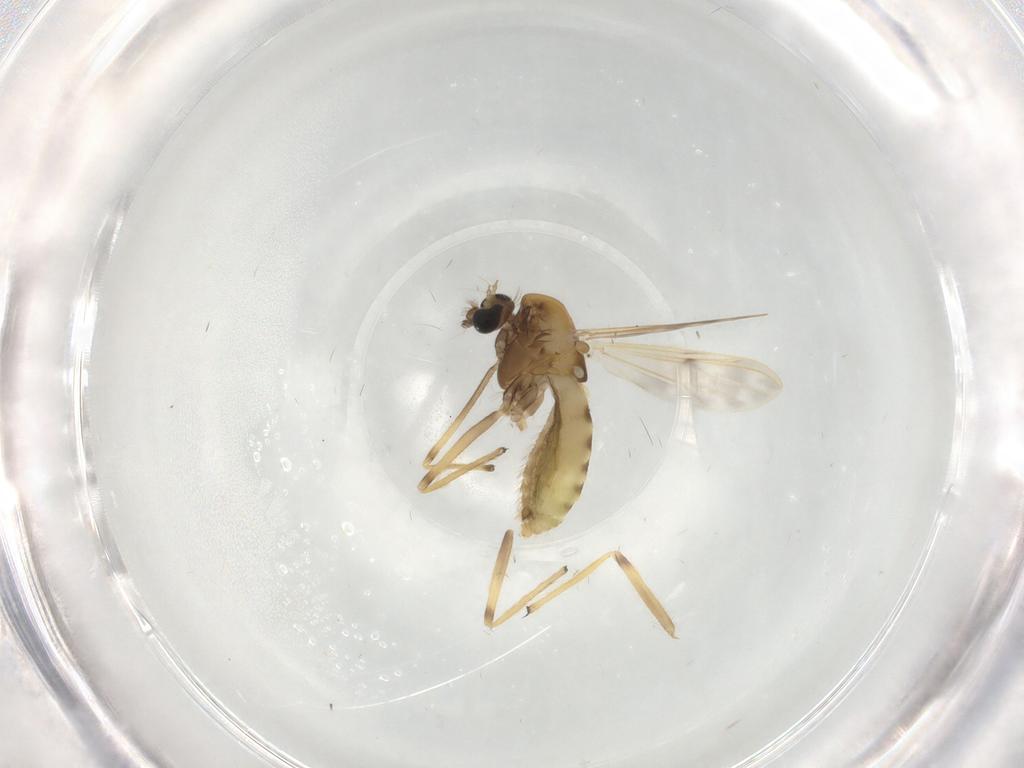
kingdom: Animalia
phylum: Arthropoda
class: Insecta
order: Diptera
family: Chironomidae
